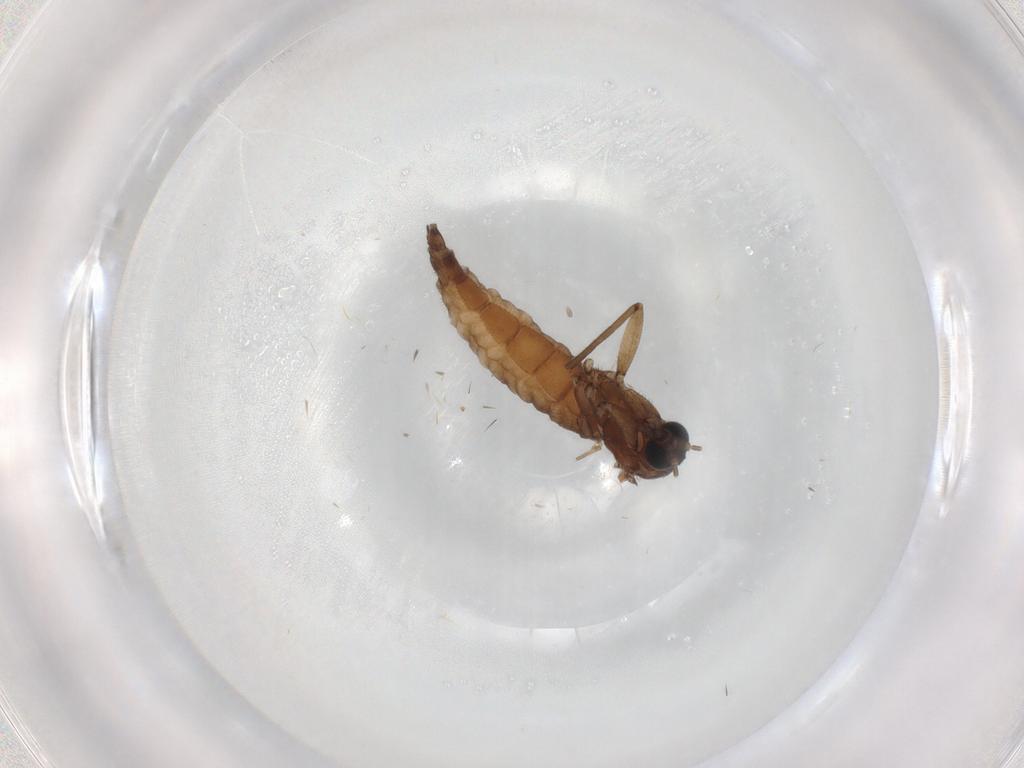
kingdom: Animalia
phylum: Arthropoda
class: Insecta
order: Diptera
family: Sciaridae
